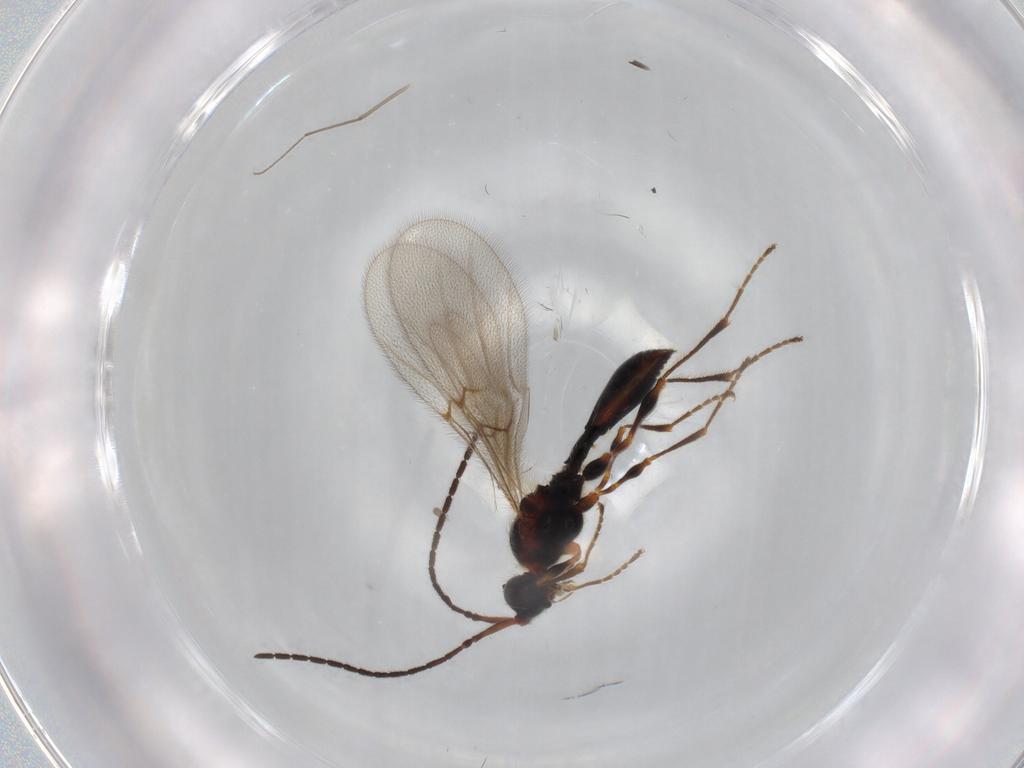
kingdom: Animalia
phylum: Arthropoda
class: Insecta
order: Hymenoptera
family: Diapriidae
